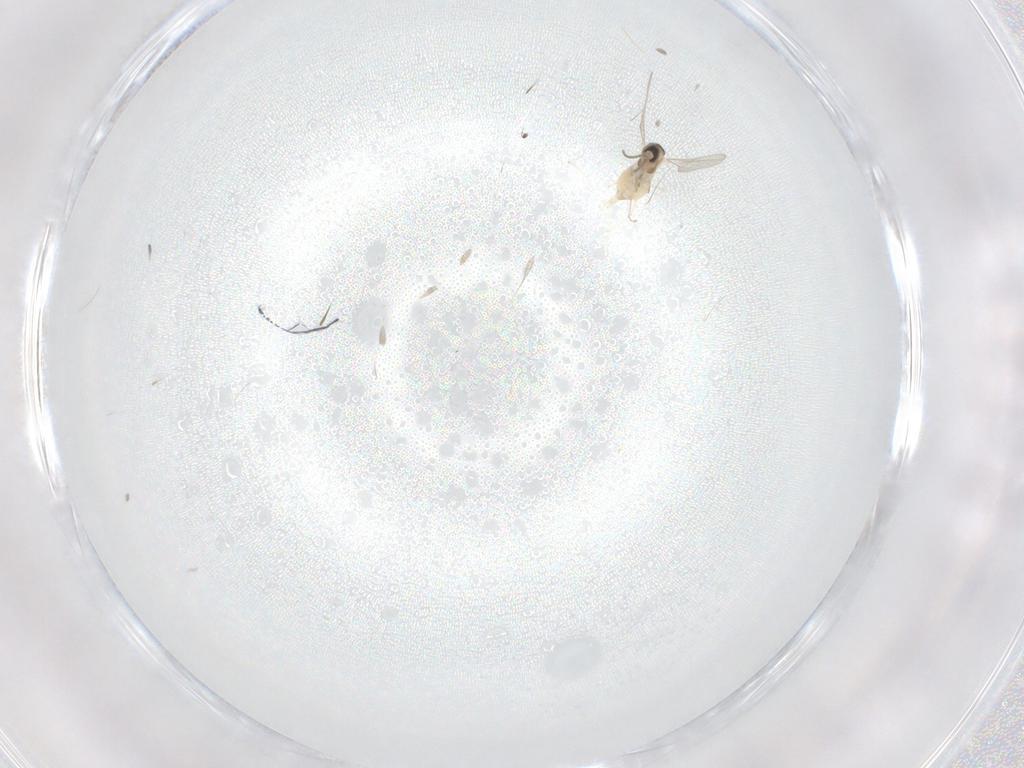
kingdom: Animalia
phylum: Arthropoda
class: Insecta
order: Diptera
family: Cecidomyiidae
